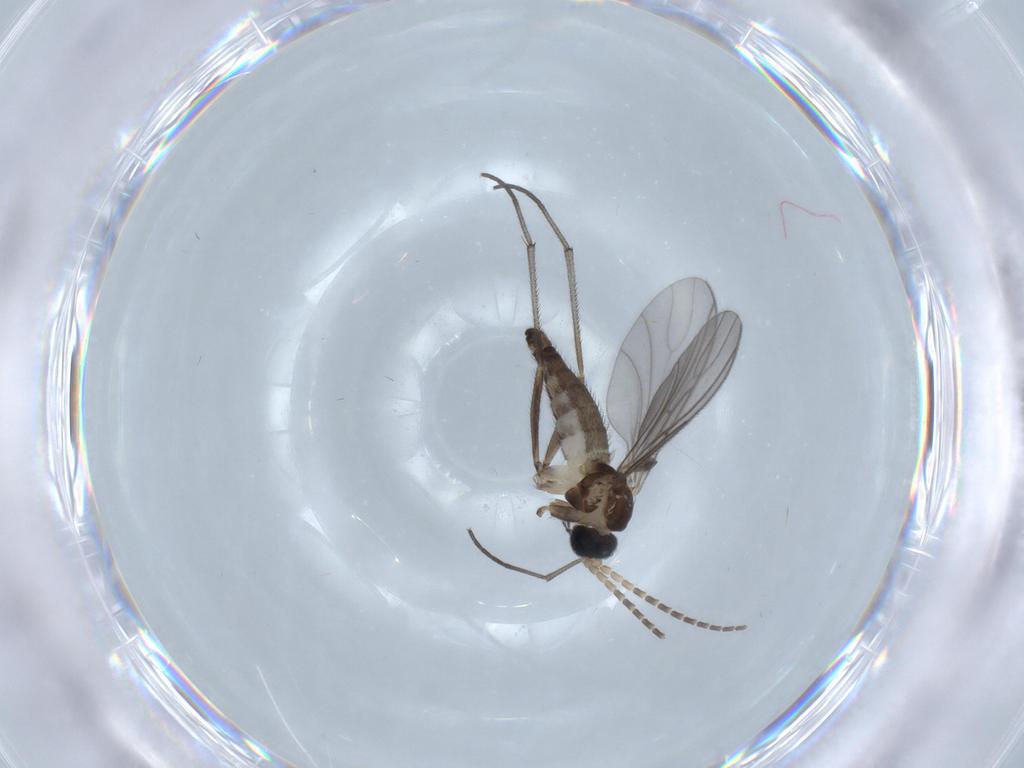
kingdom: Animalia
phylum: Arthropoda
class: Insecta
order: Diptera
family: Sciaridae
